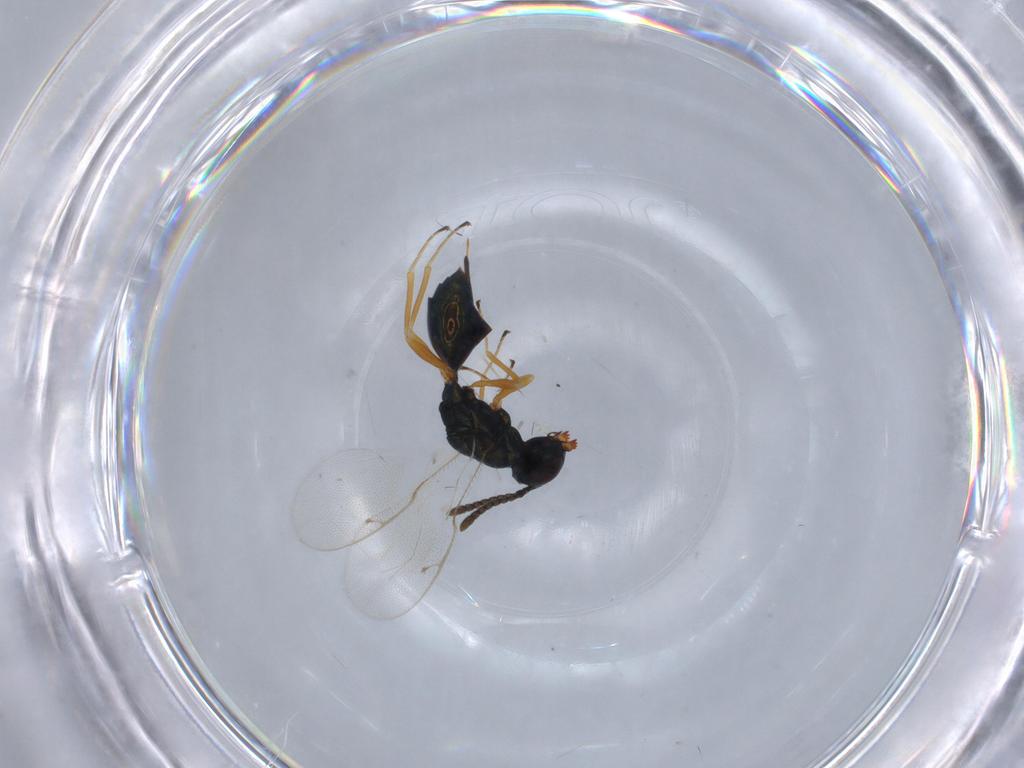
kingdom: Animalia
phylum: Arthropoda
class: Insecta
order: Hymenoptera
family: Pteromalidae
